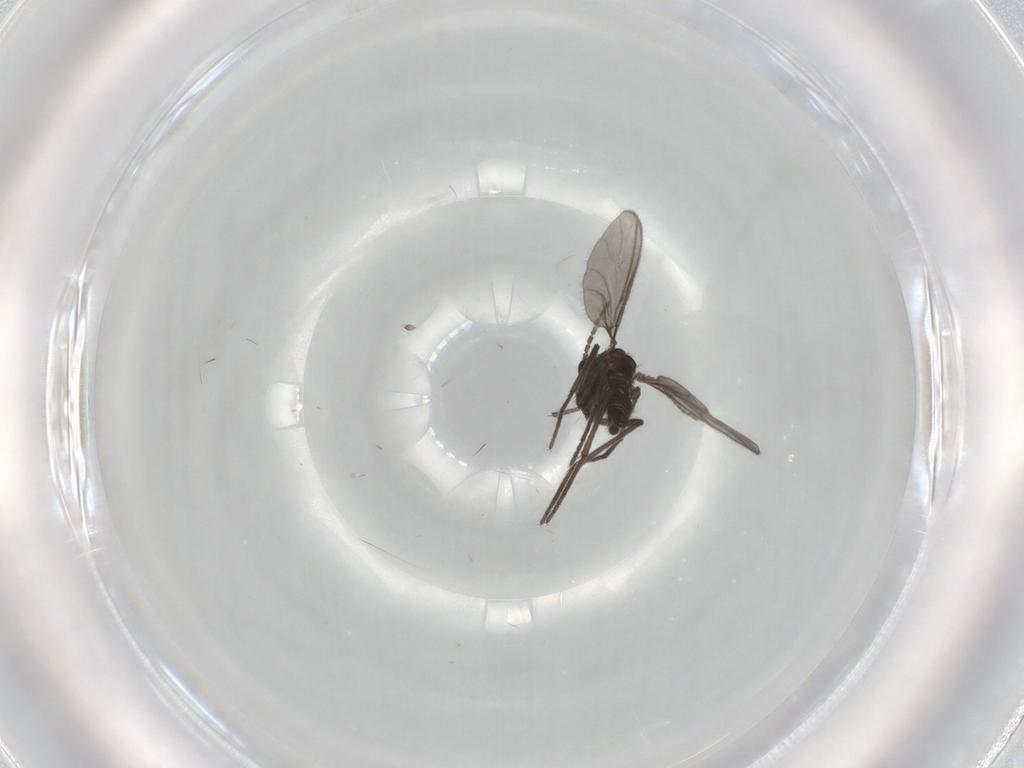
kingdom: Animalia
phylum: Arthropoda
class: Insecta
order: Diptera
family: Sciaridae
